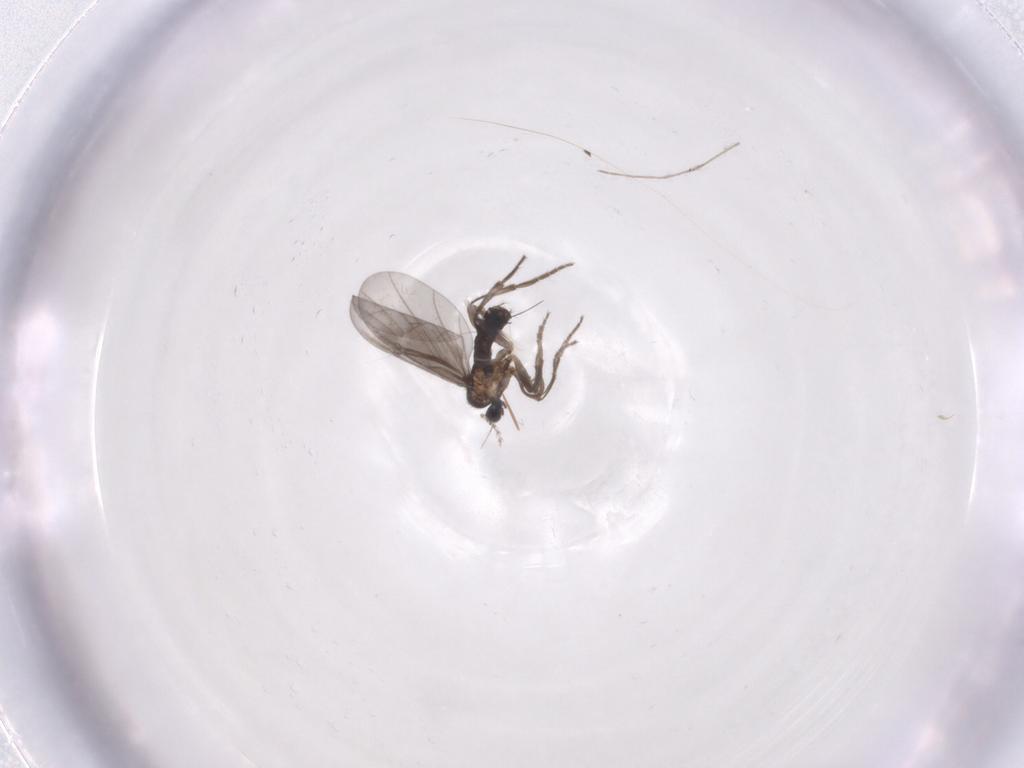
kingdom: Animalia
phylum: Arthropoda
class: Insecta
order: Diptera
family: Phoridae
